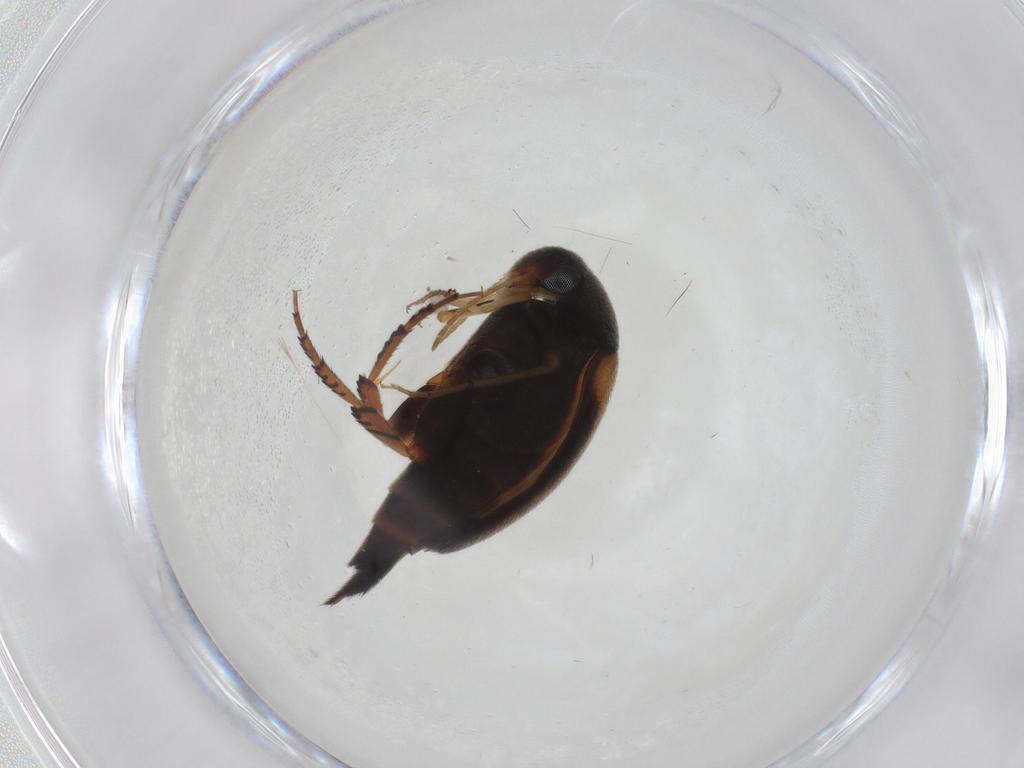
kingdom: Animalia
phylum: Arthropoda
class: Insecta
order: Coleoptera
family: Mordellidae
